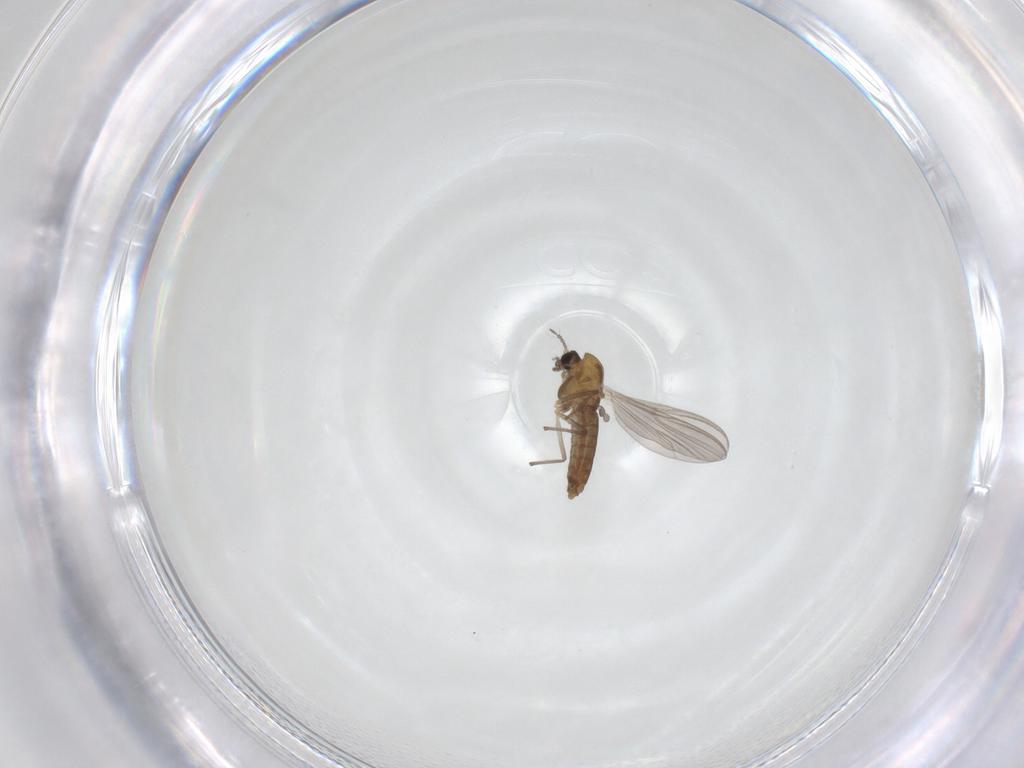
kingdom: Animalia
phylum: Arthropoda
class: Insecta
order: Diptera
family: Chironomidae
